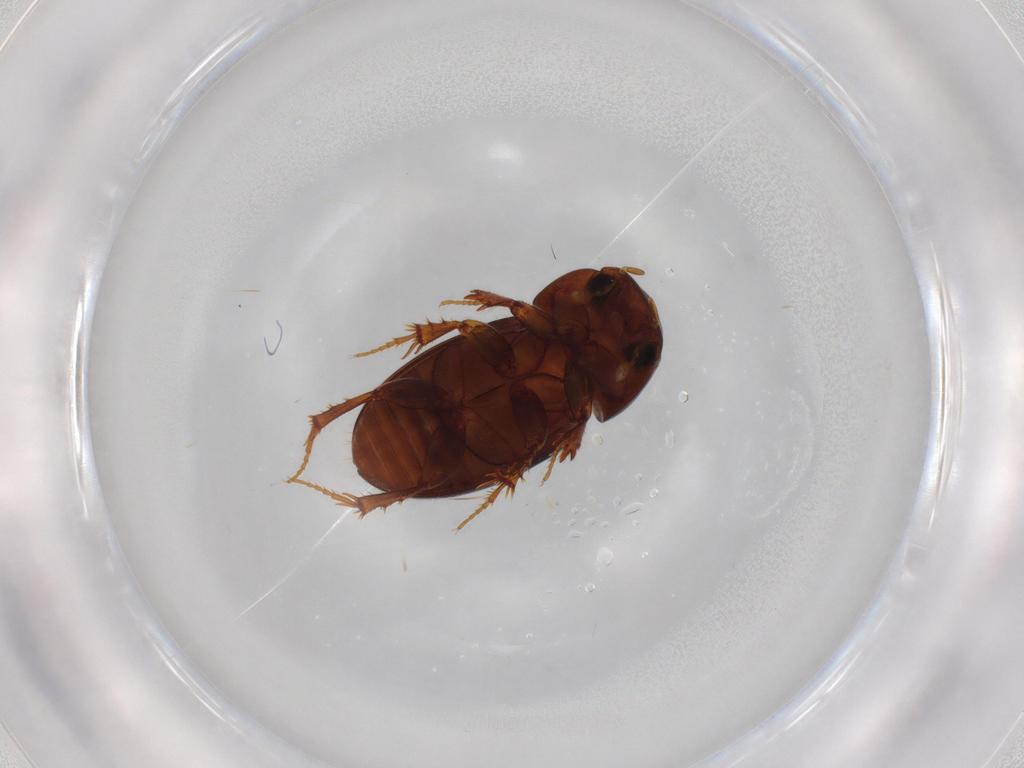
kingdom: Animalia
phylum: Arthropoda
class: Insecta
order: Coleoptera
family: Scarabaeidae
